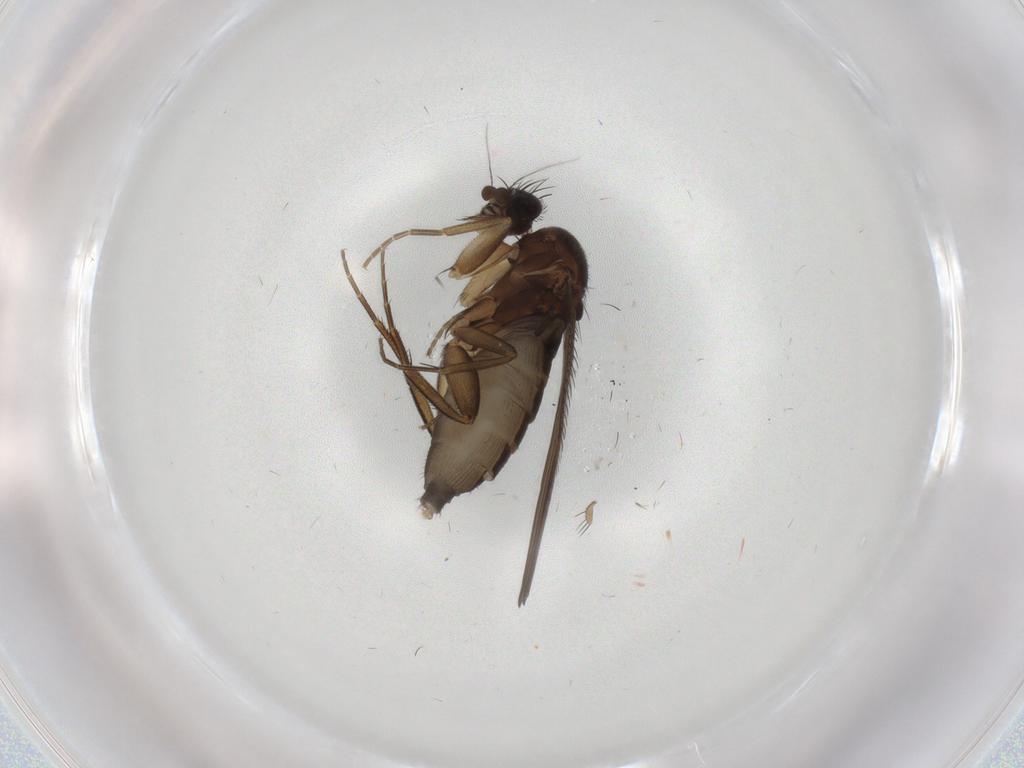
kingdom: Animalia
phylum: Arthropoda
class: Insecta
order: Diptera
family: Phoridae
